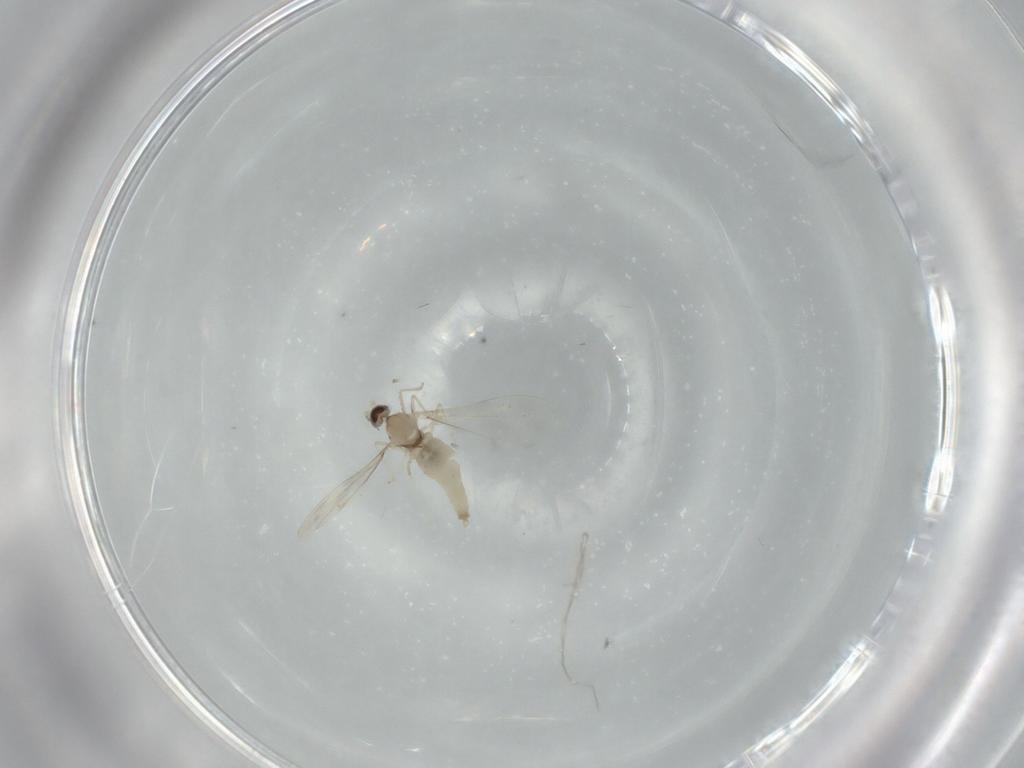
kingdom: Animalia
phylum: Arthropoda
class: Insecta
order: Diptera
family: Cecidomyiidae
